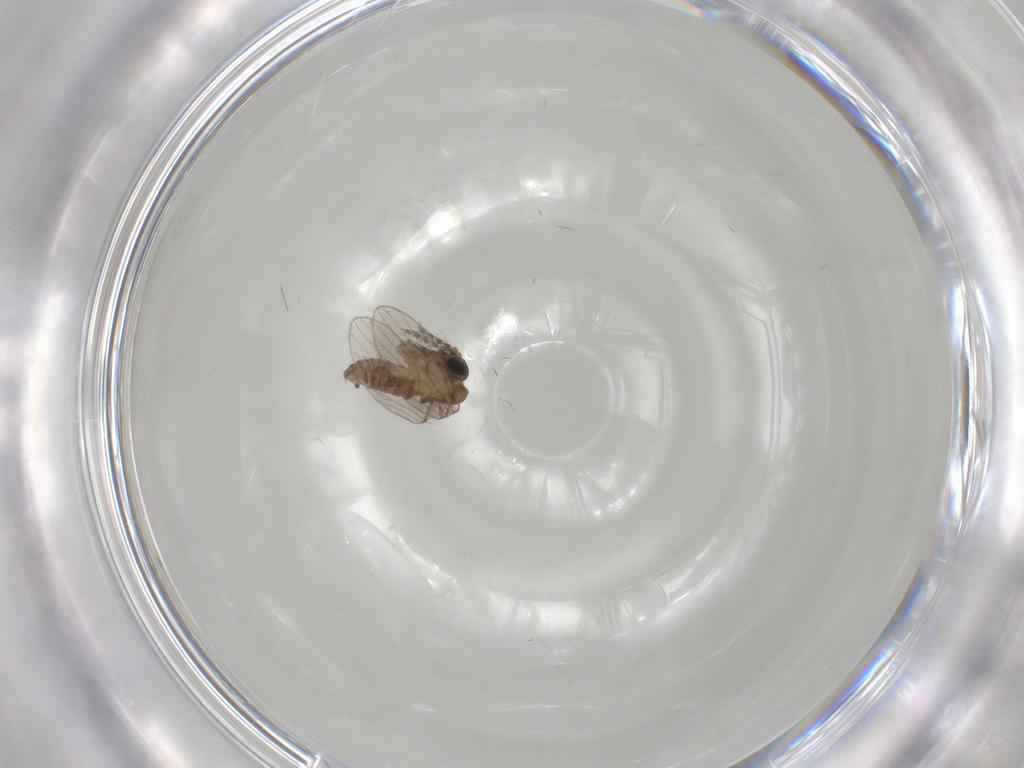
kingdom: Animalia
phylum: Arthropoda
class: Insecta
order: Diptera
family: Psychodidae
